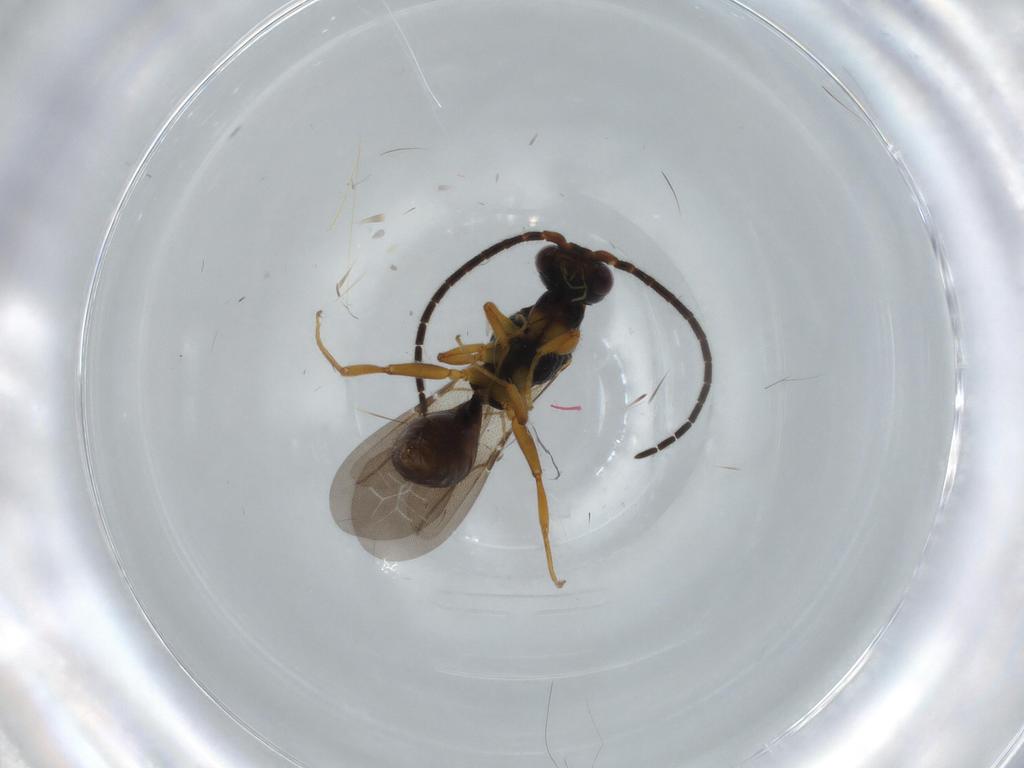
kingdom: Animalia
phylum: Arthropoda
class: Insecta
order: Hymenoptera
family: Bethylidae
